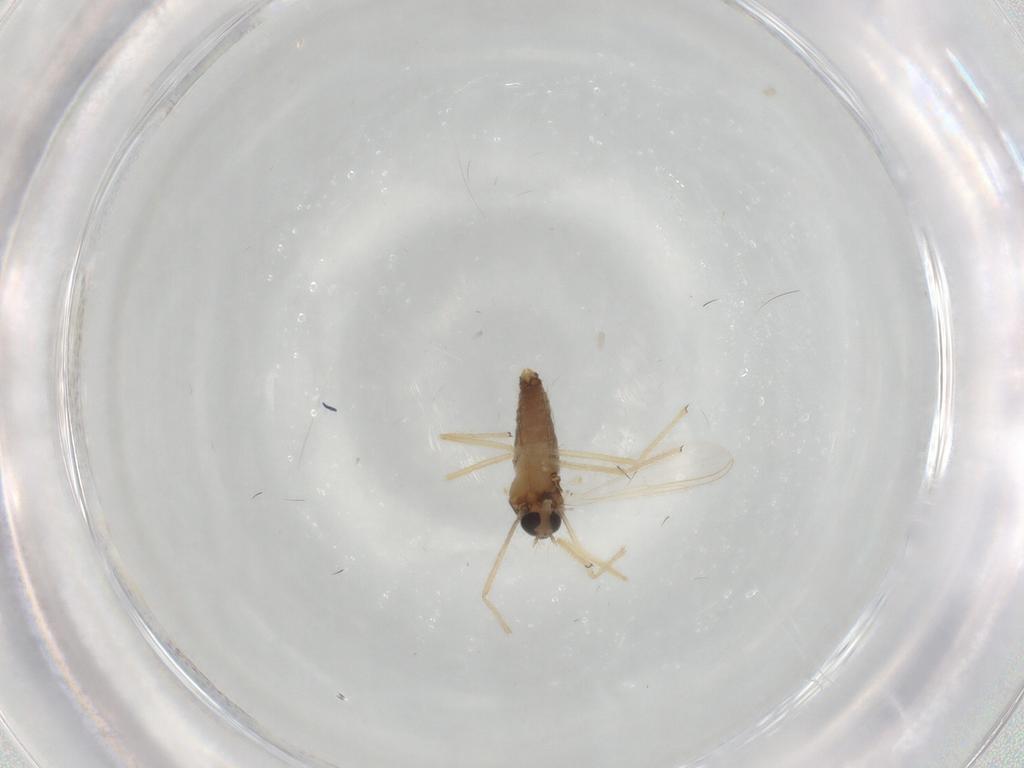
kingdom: Animalia
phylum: Arthropoda
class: Insecta
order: Diptera
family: Chironomidae
